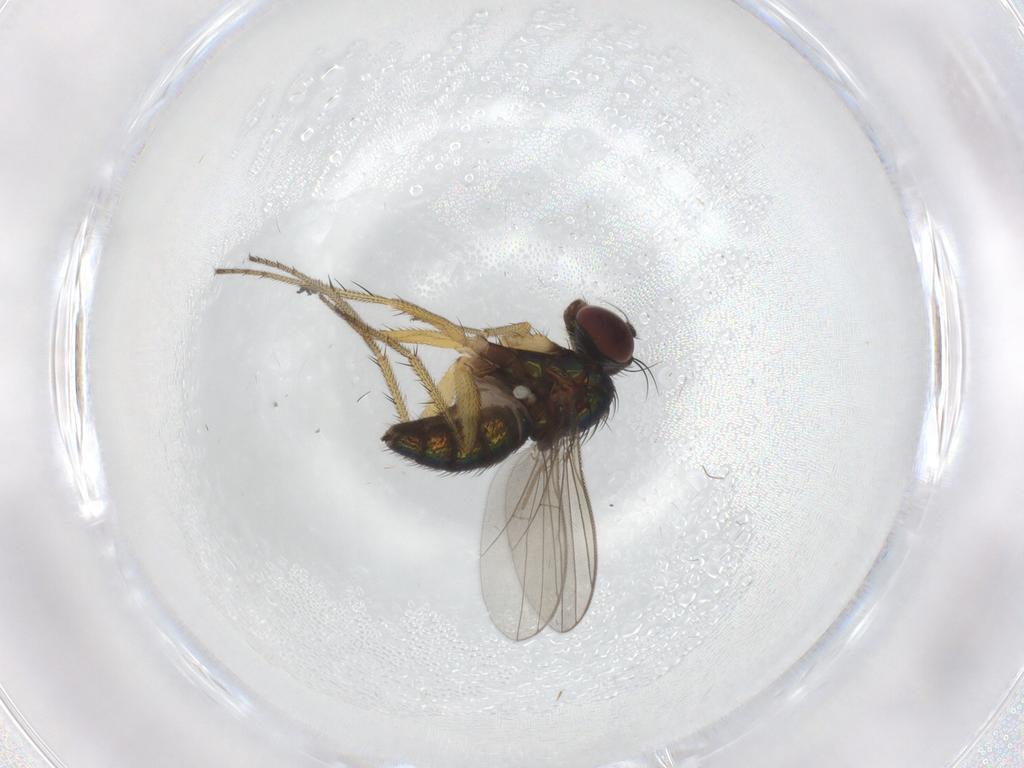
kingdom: Animalia
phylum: Arthropoda
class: Insecta
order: Diptera
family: Dolichopodidae
